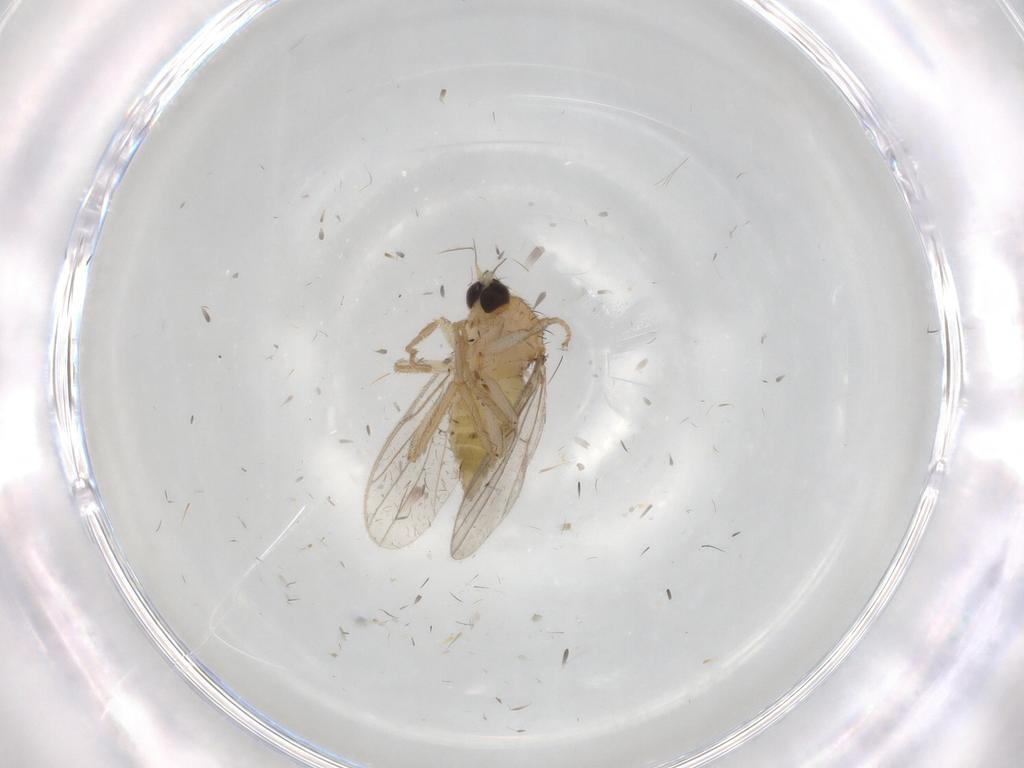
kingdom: Animalia
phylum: Arthropoda
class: Insecta
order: Diptera
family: Hybotidae
